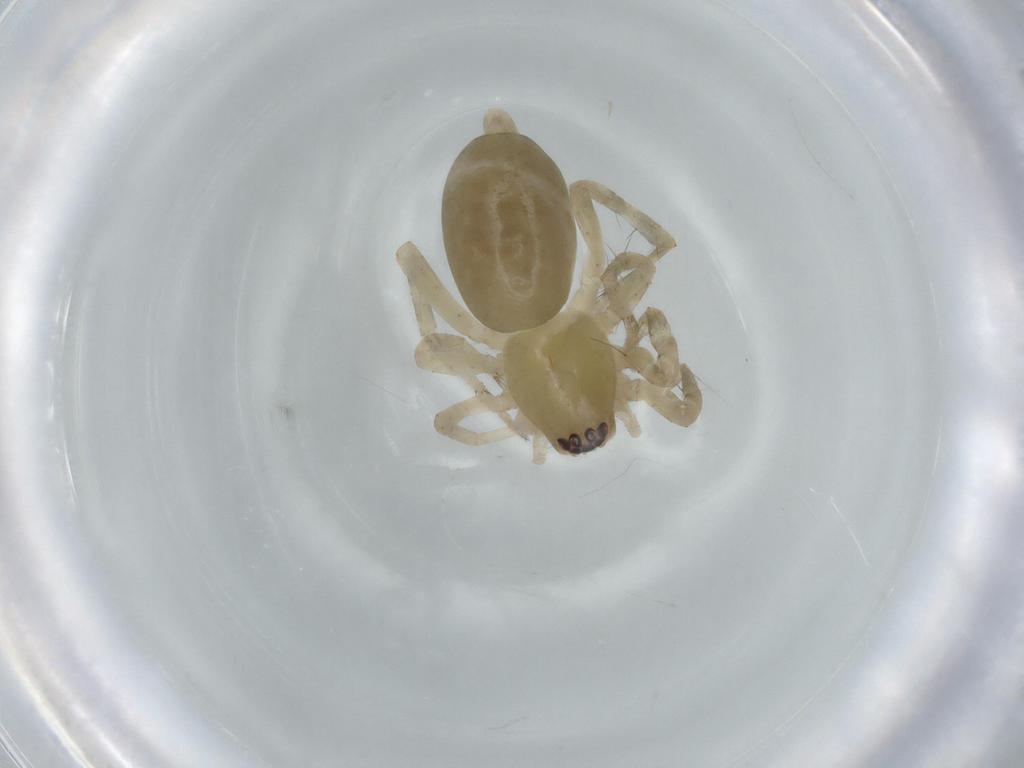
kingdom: Animalia
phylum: Arthropoda
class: Arachnida
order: Araneae
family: Anyphaenidae
